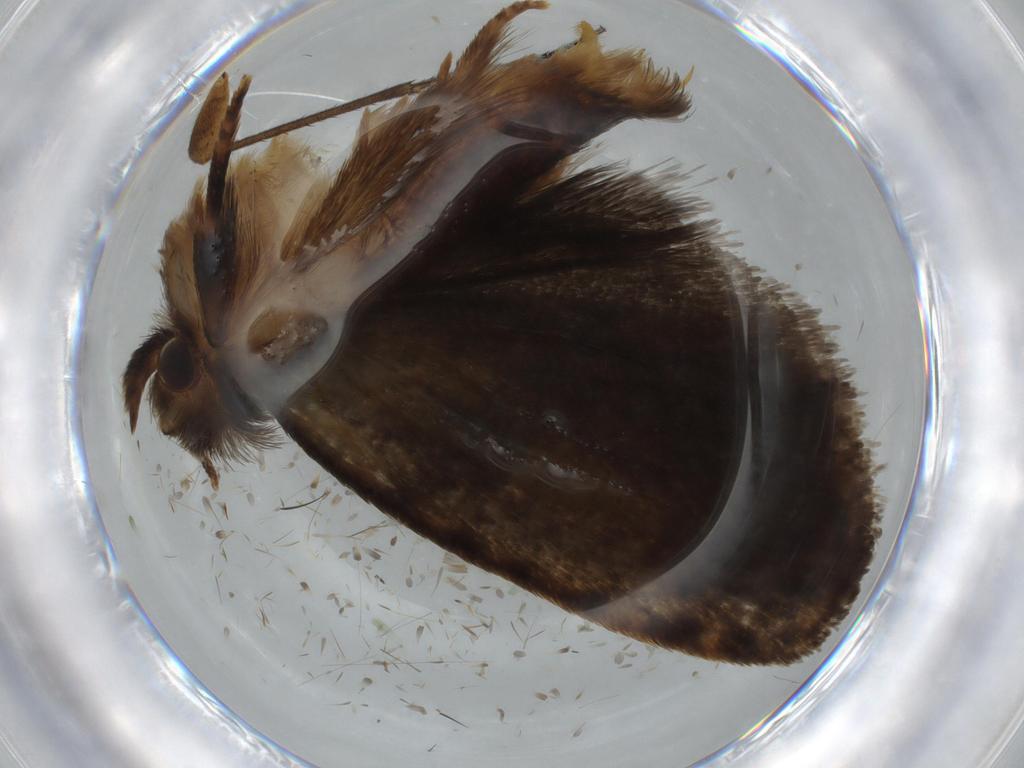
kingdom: Animalia
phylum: Arthropoda
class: Insecta
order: Lepidoptera
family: Tineidae
